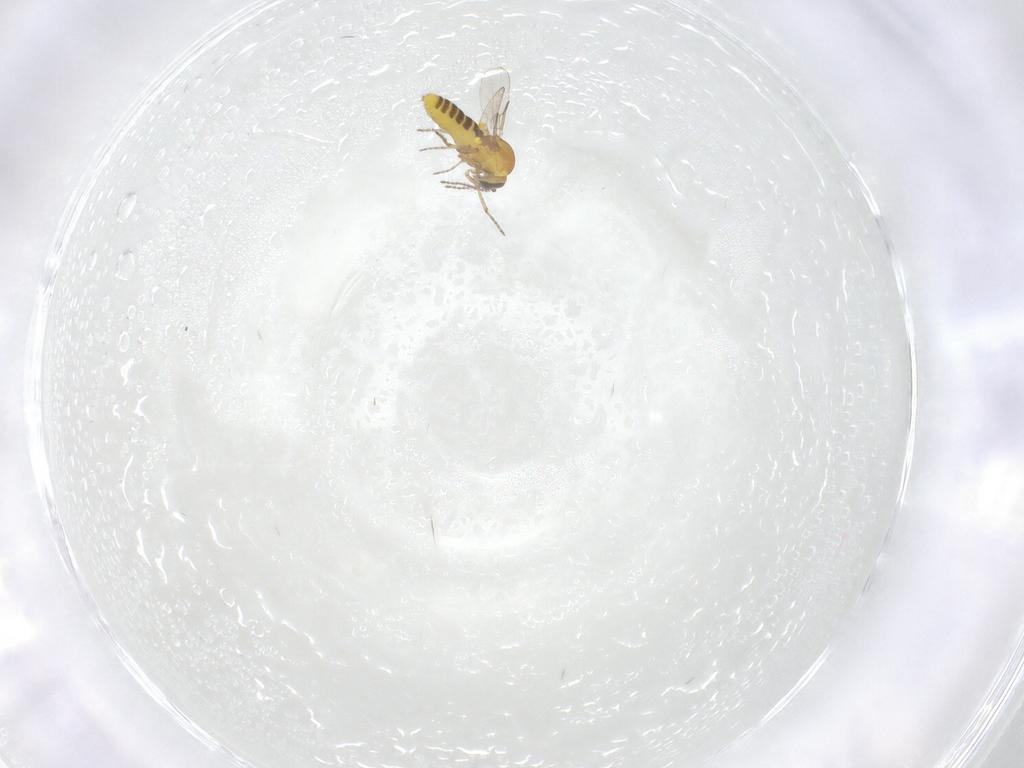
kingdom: Animalia
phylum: Arthropoda
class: Insecta
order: Diptera
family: Ceratopogonidae
